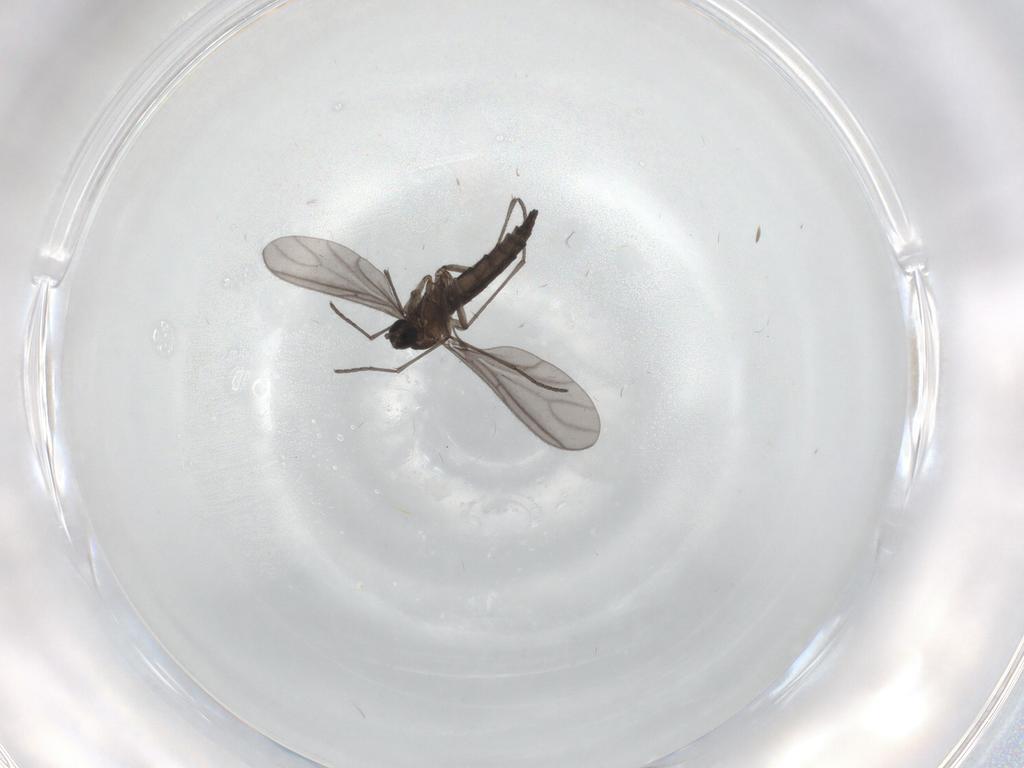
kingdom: Animalia
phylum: Arthropoda
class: Insecta
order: Diptera
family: Sciaridae
